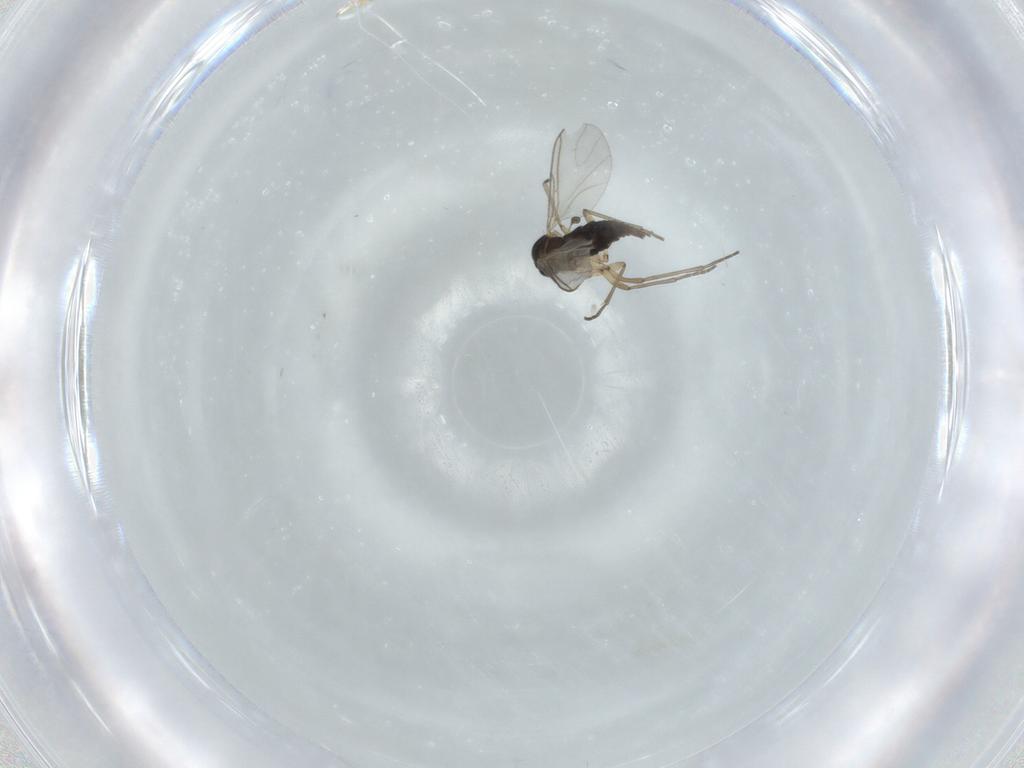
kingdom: Animalia
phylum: Arthropoda
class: Insecta
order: Diptera
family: Sciaridae
